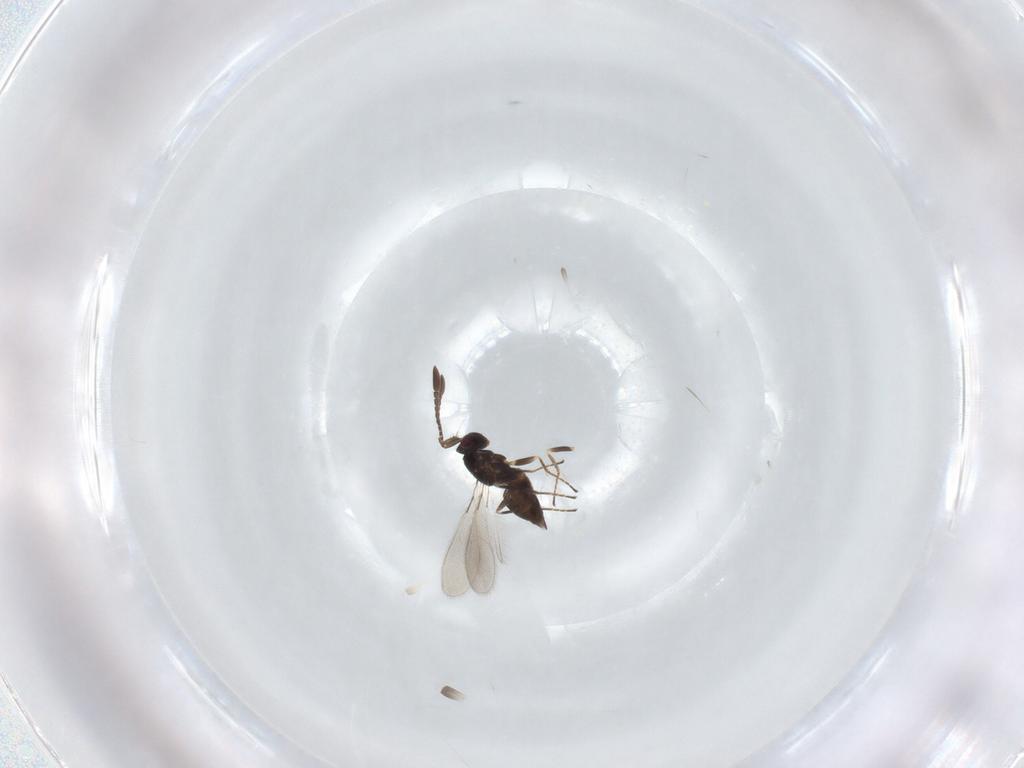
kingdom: Animalia
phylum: Arthropoda
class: Insecta
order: Hymenoptera
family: Mymaridae
